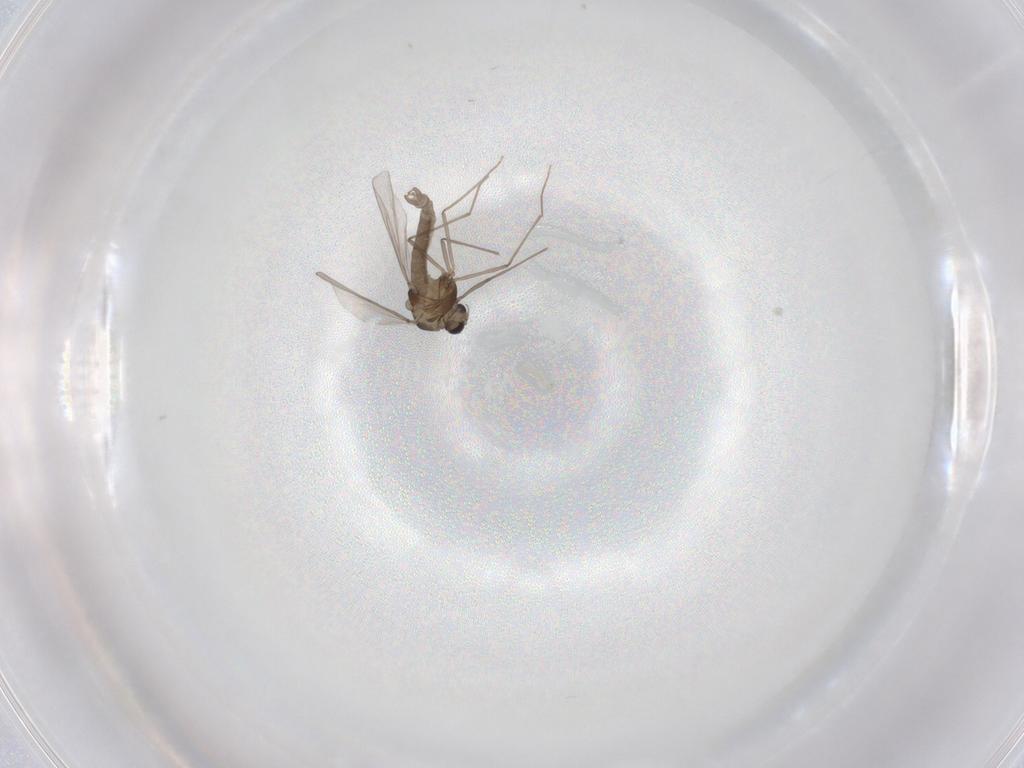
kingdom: Animalia
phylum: Arthropoda
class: Insecta
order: Diptera
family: Chironomidae
